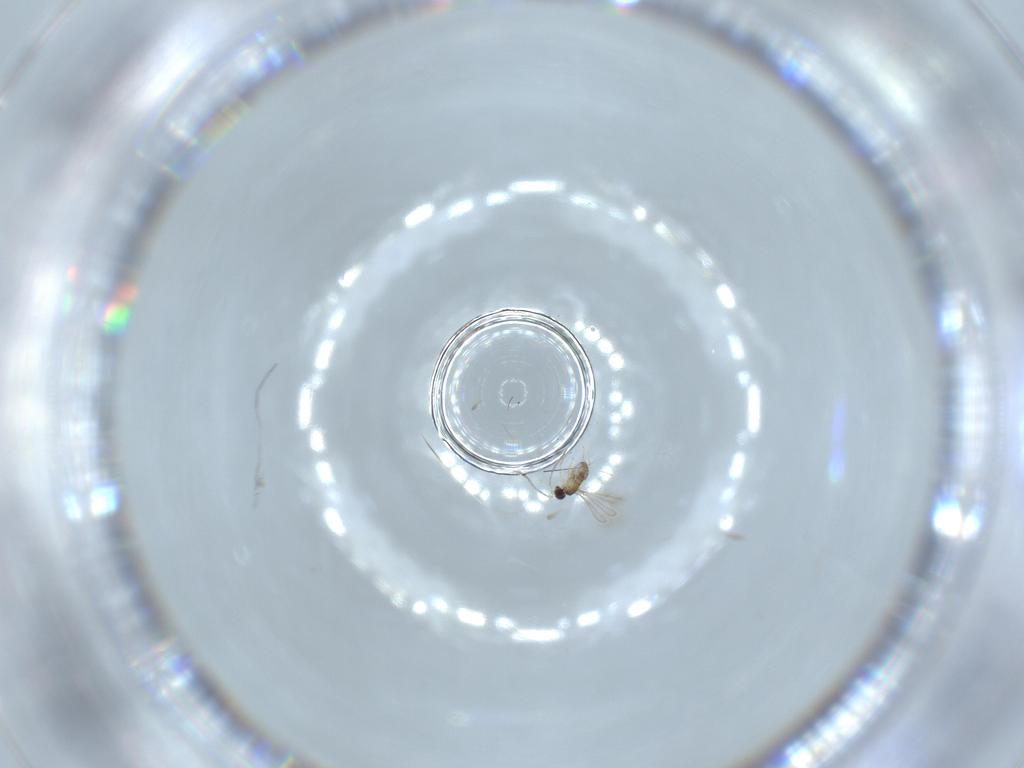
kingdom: Animalia
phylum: Arthropoda
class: Insecta
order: Hymenoptera
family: Mymaridae
